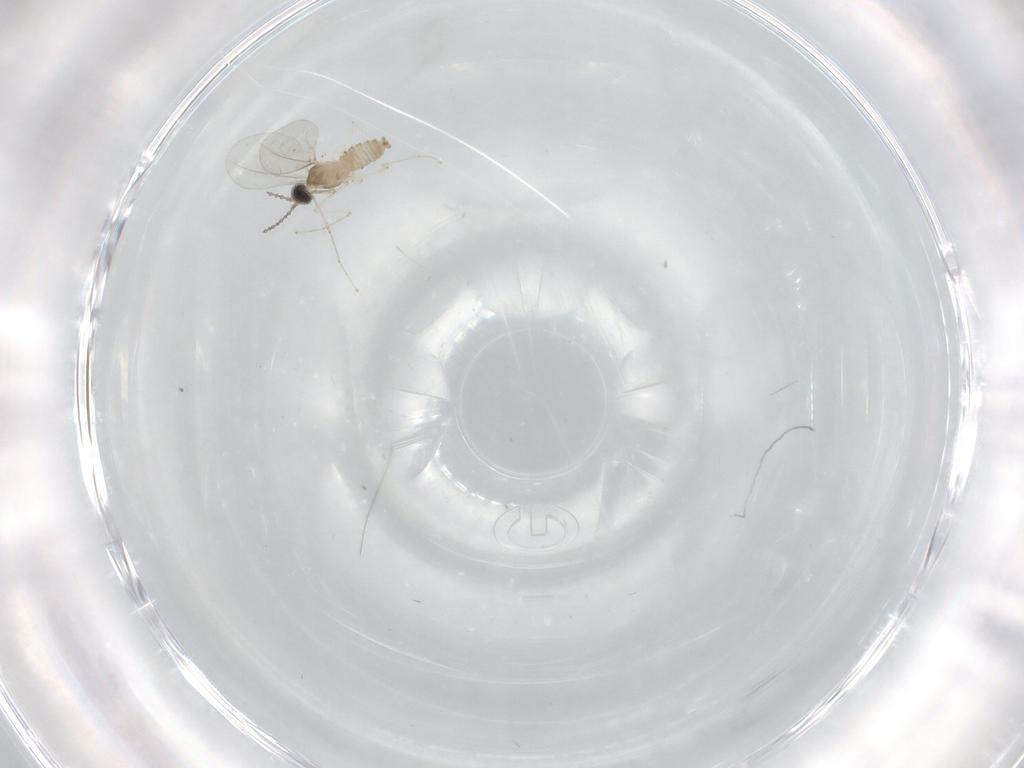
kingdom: Animalia
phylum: Arthropoda
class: Insecta
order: Diptera
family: Cecidomyiidae
